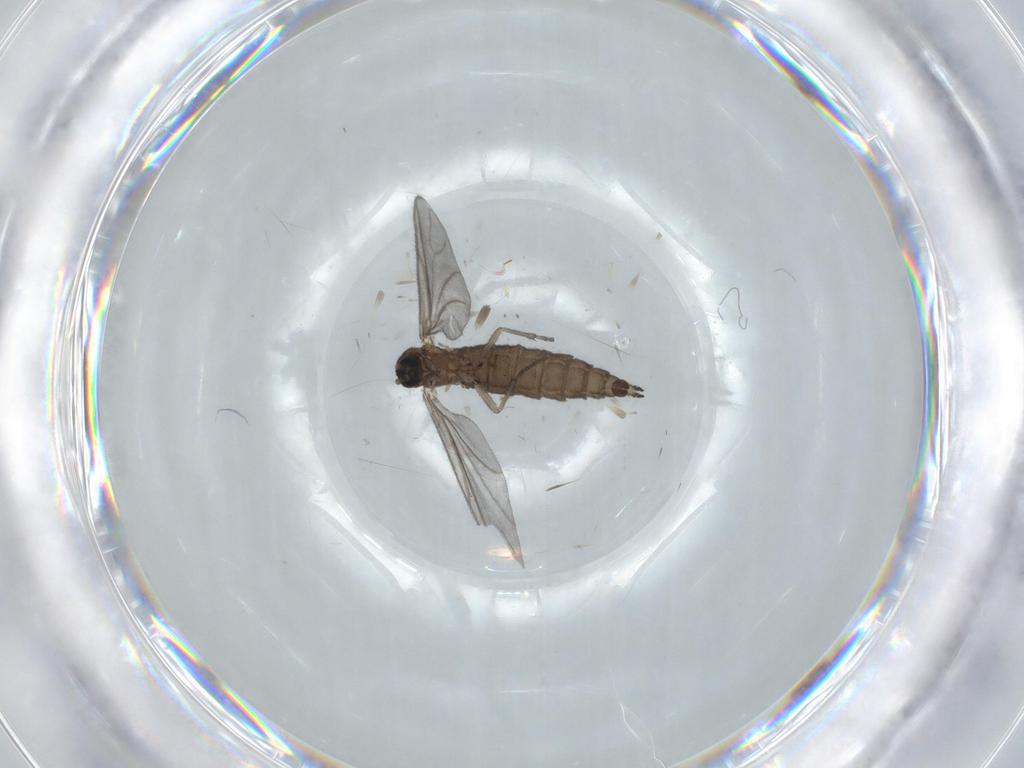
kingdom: Animalia
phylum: Arthropoda
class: Insecta
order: Diptera
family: Sciaridae
